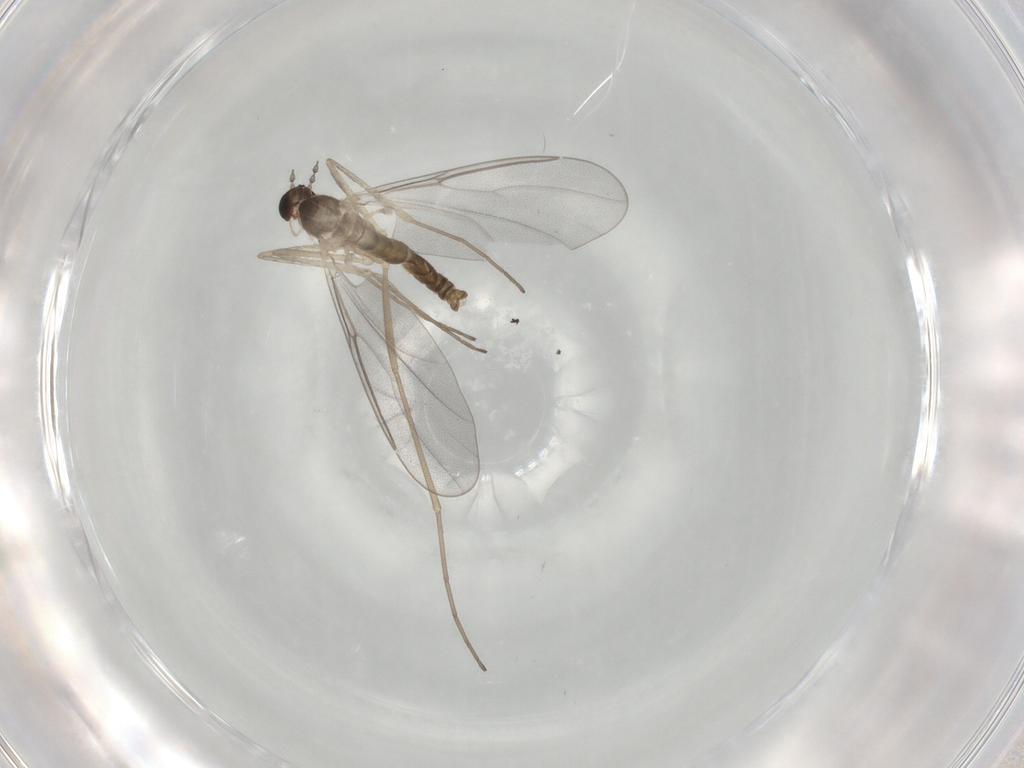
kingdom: Animalia
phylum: Arthropoda
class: Insecta
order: Diptera
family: Cecidomyiidae
